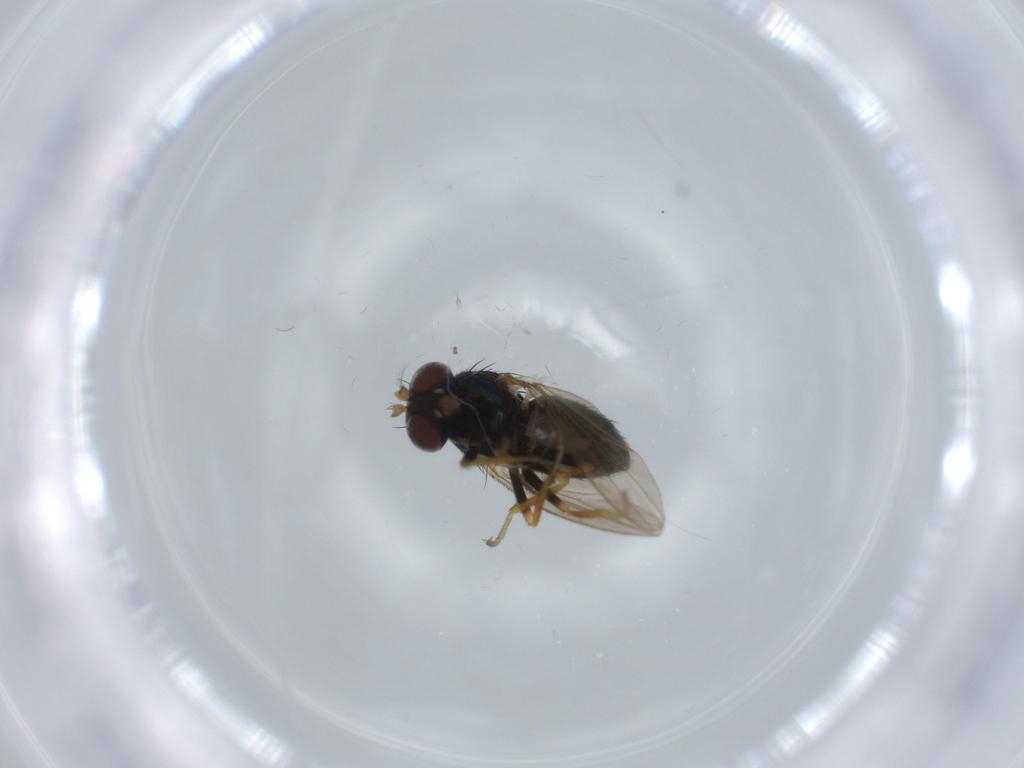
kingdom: Animalia
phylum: Arthropoda
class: Insecta
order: Diptera
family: Ephydridae
